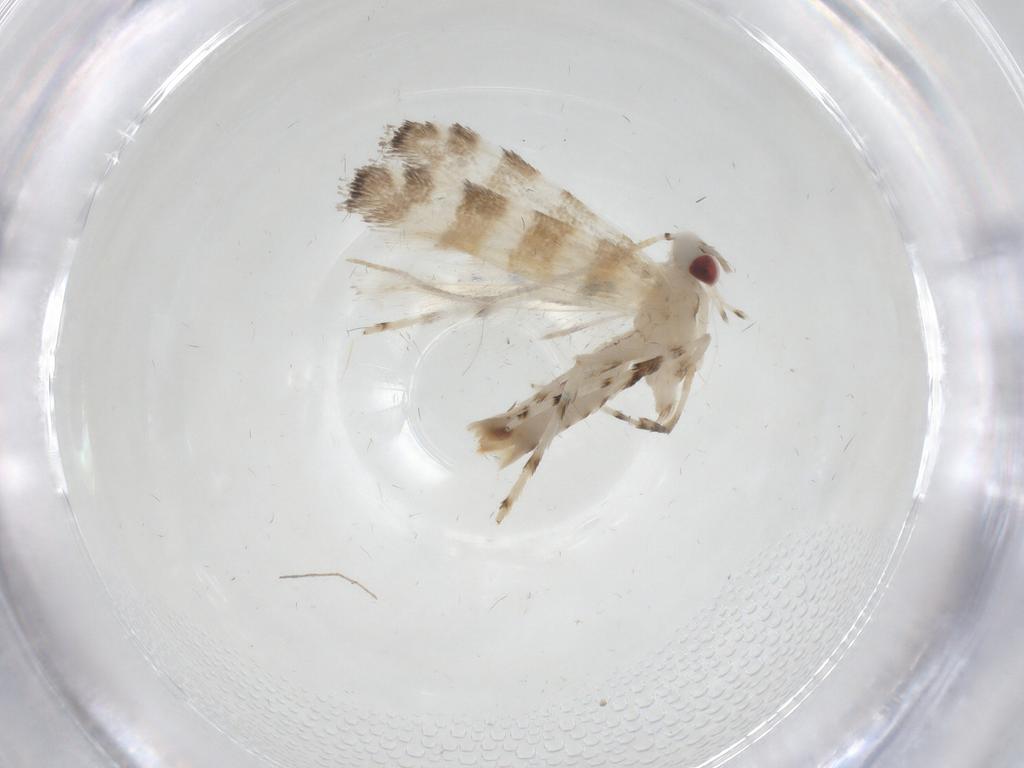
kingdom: Animalia
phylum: Arthropoda
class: Insecta
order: Lepidoptera
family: Gracillariidae
